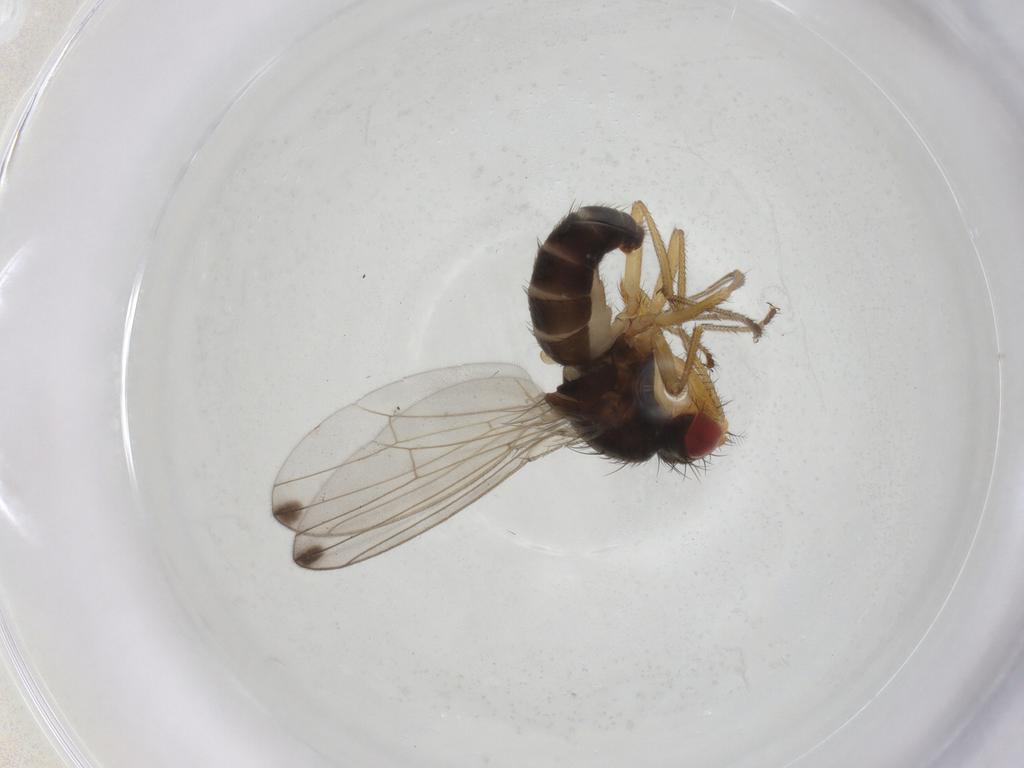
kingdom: Animalia
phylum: Arthropoda
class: Insecta
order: Diptera
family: Drosophilidae
